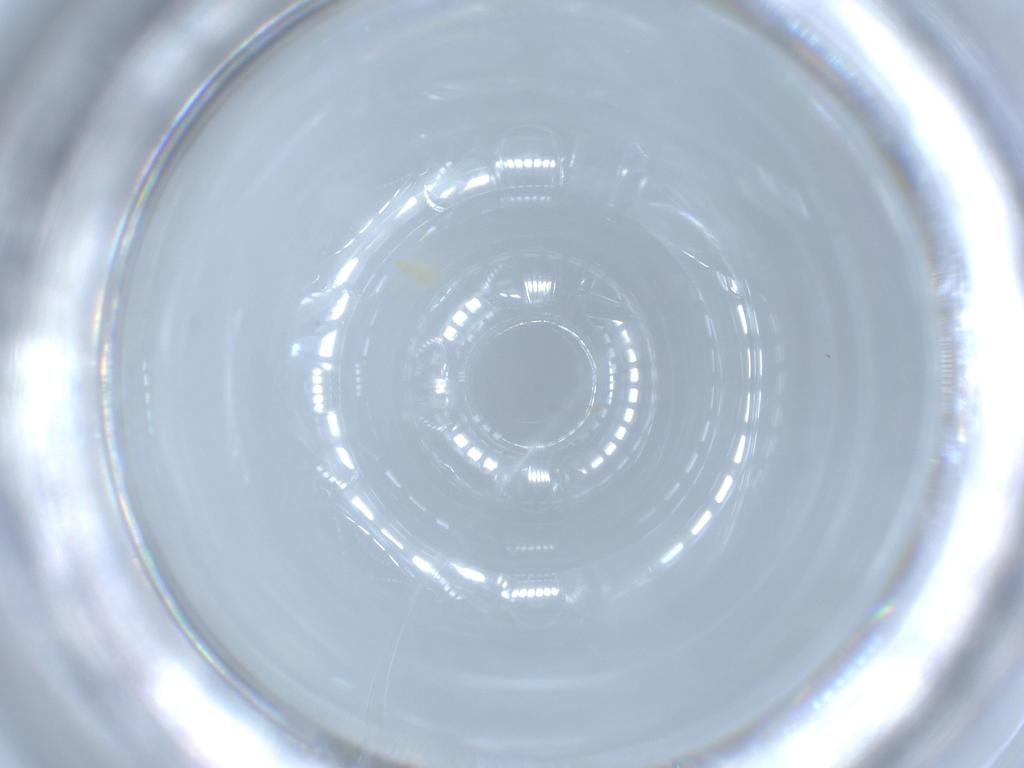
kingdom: Animalia
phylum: Arthropoda
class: Insecta
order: Diptera
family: Cecidomyiidae
